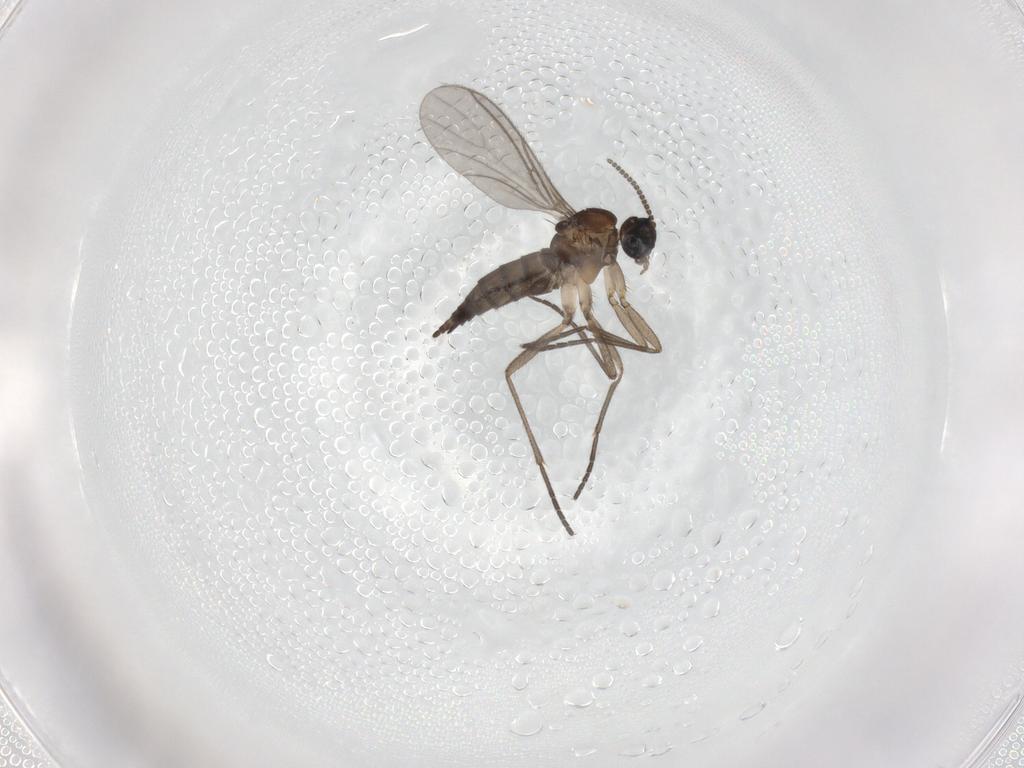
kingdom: Animalia
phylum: Arthropoda
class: Insecta
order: Diptera
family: Sciaridae
